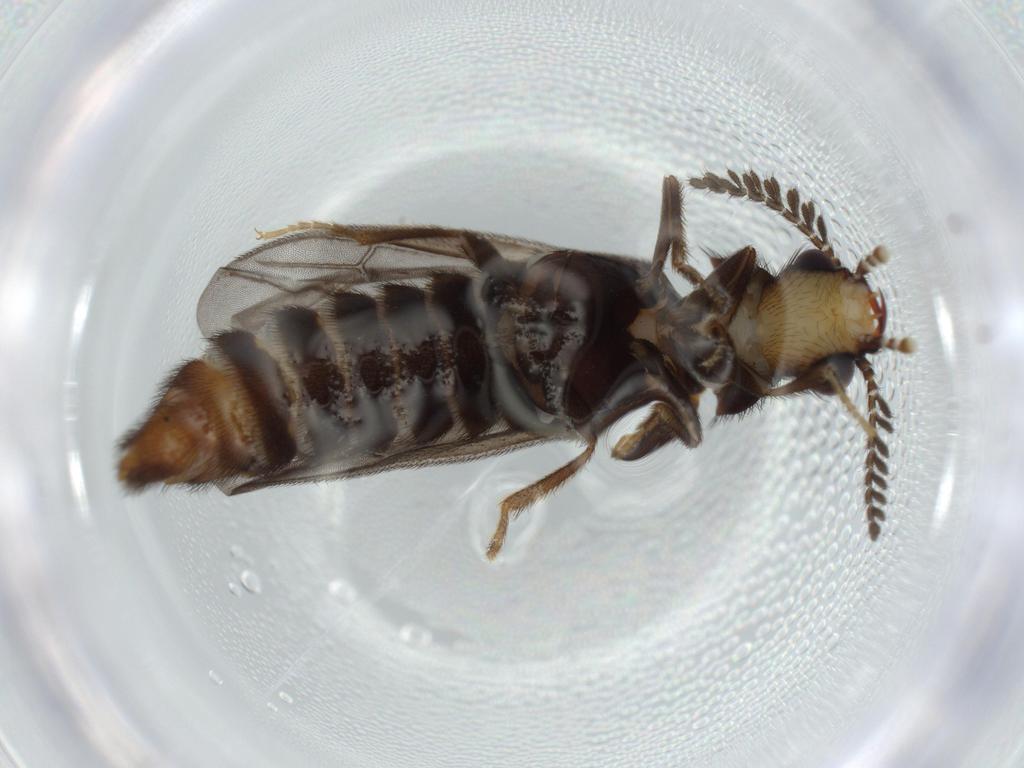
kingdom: Animalia
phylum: Arthropoda
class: Insecta
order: Coleoptera
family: Phengodidae
